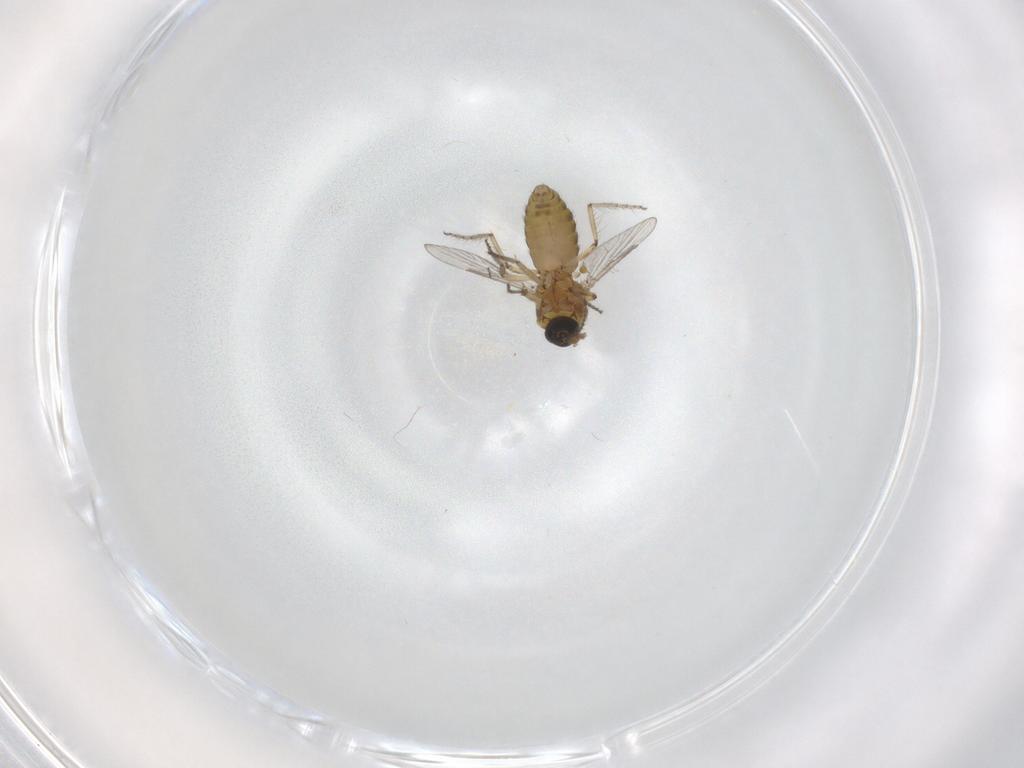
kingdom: Animalia
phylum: Arthropoda
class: Insecta
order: Diptera
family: Ceratopogonidae
